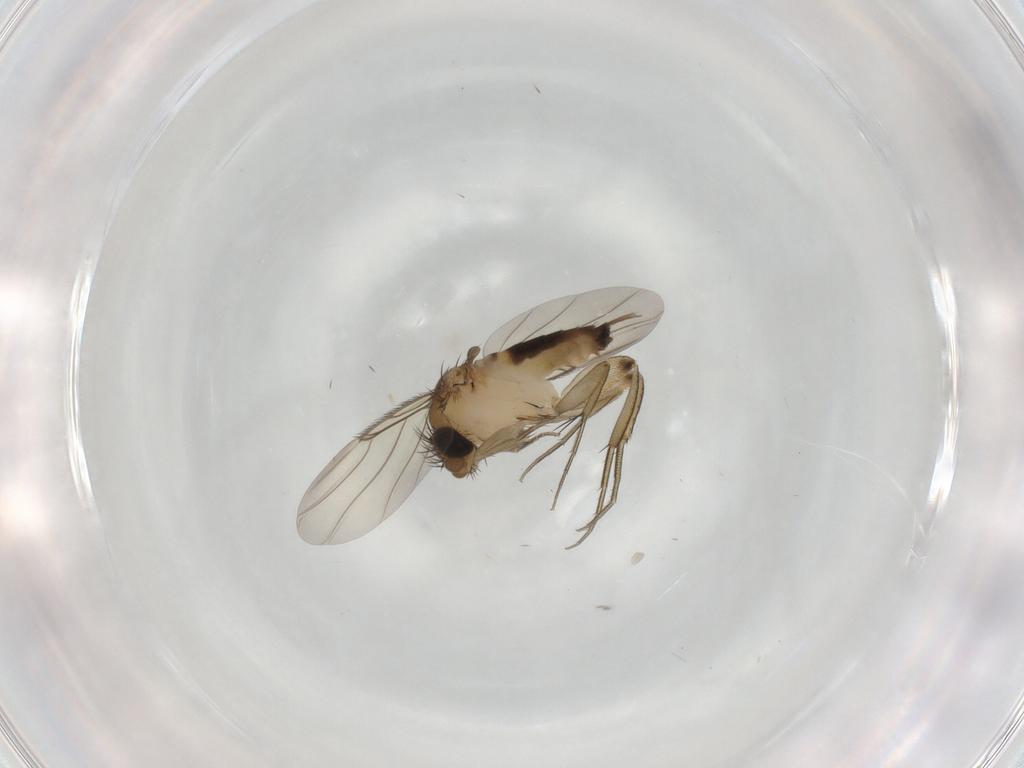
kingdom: Animalia
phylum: Arthropoda
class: Insecta
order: Diptera
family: Phoridae
